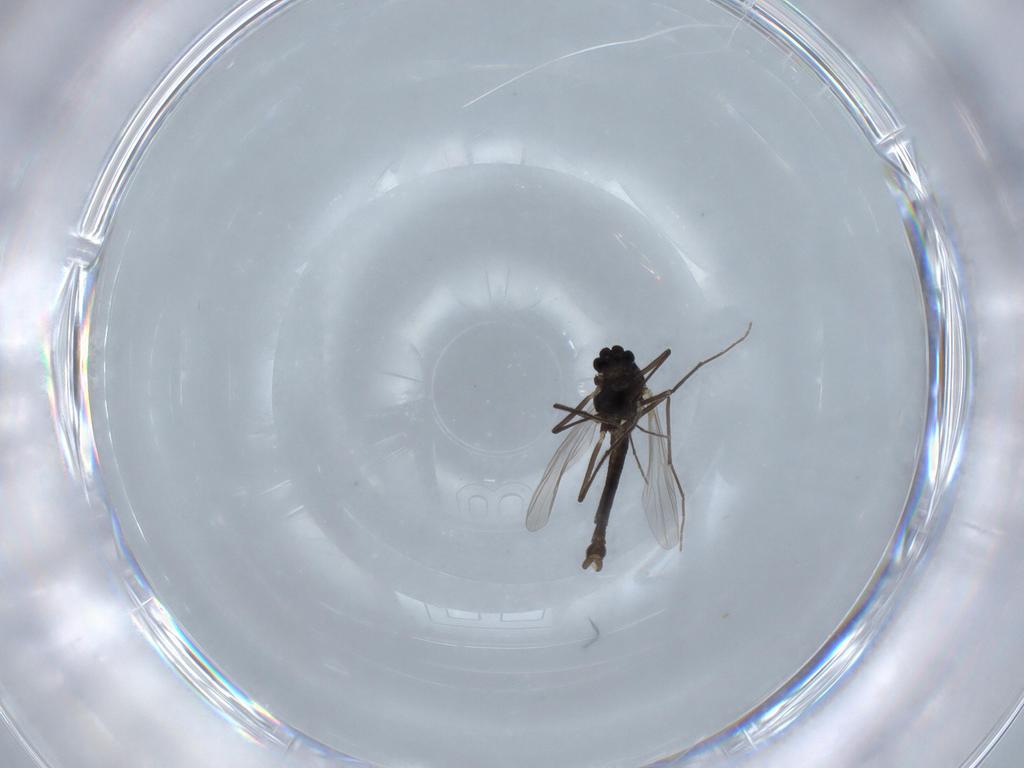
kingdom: Animalia
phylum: Arthropoda
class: Insecta
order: Diptera
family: Chironomidae
